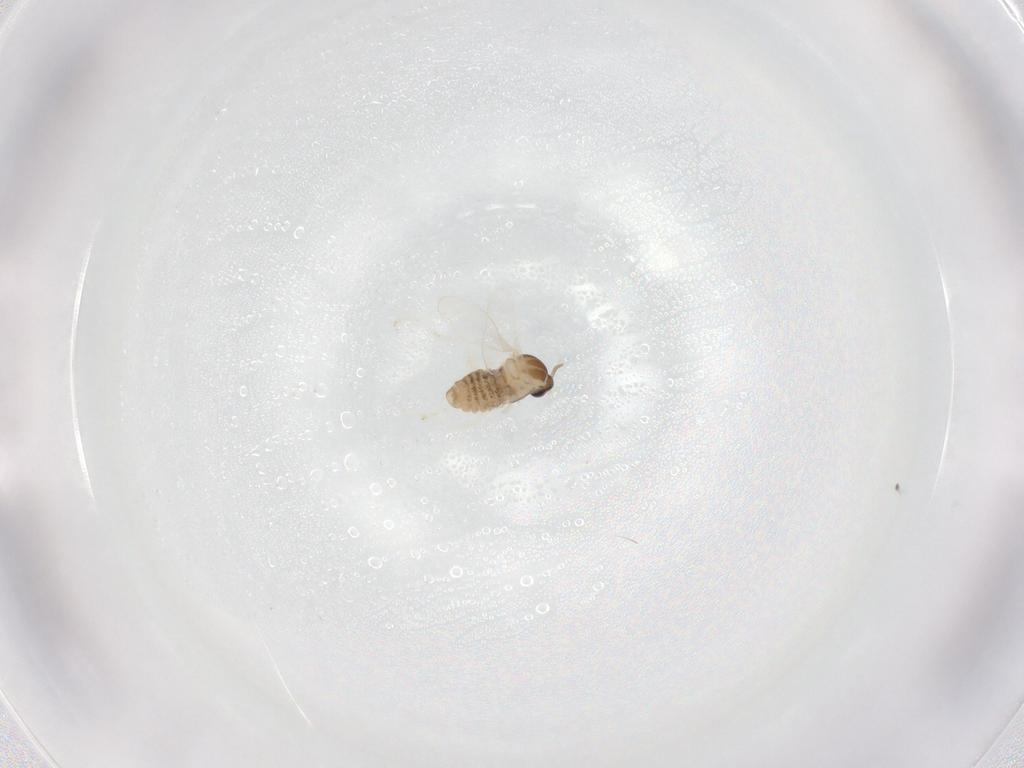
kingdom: Animalia
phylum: Arthropoda
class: Insecta
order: Diptera
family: Cecidomyiidae
